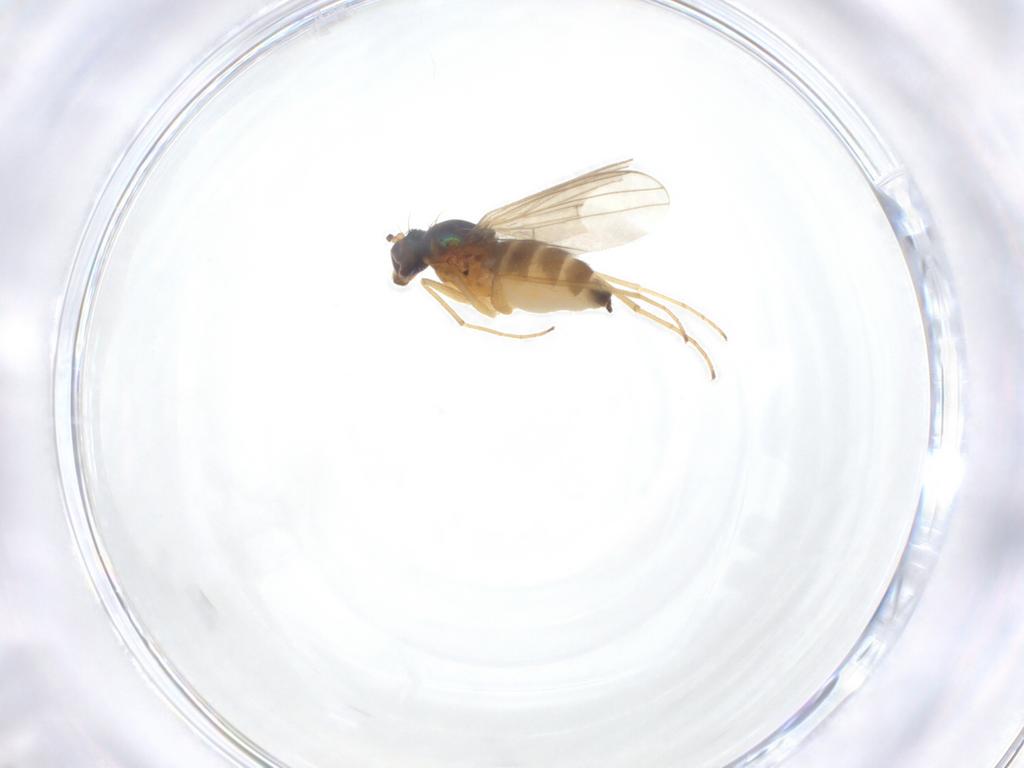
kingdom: Animalia
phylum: Arthropoda
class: Insecta
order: Diptera
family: Dolichopodidae
